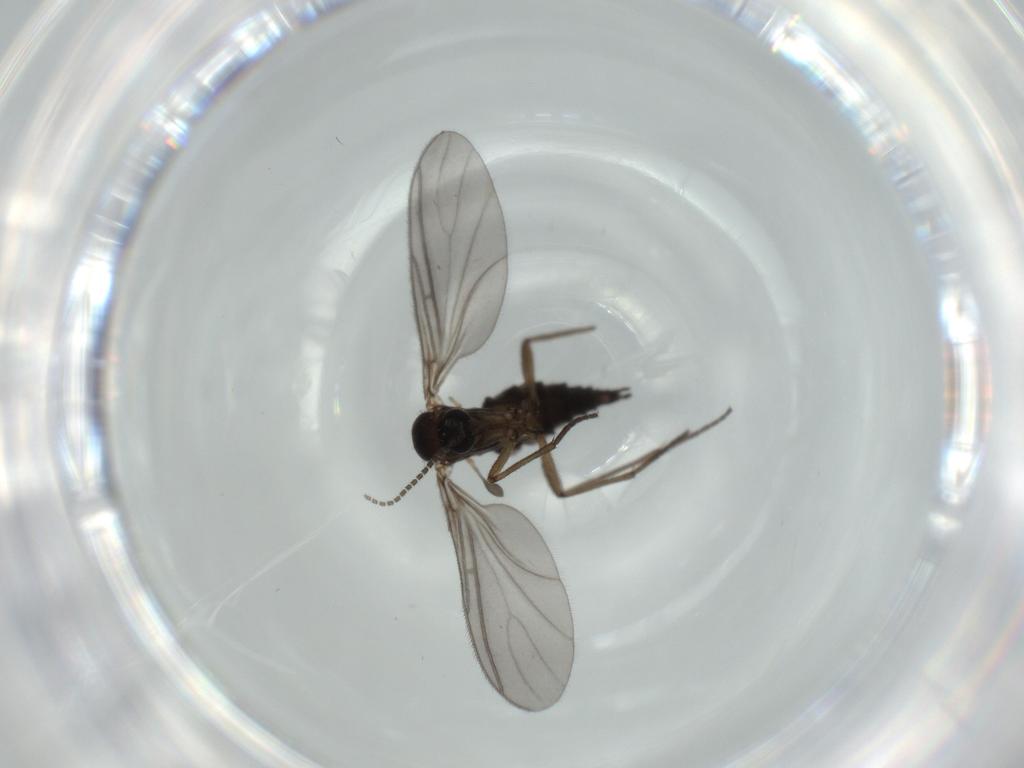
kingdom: Animalia
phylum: Arthropoda
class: Insecta
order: Diptera
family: Sciaridae
